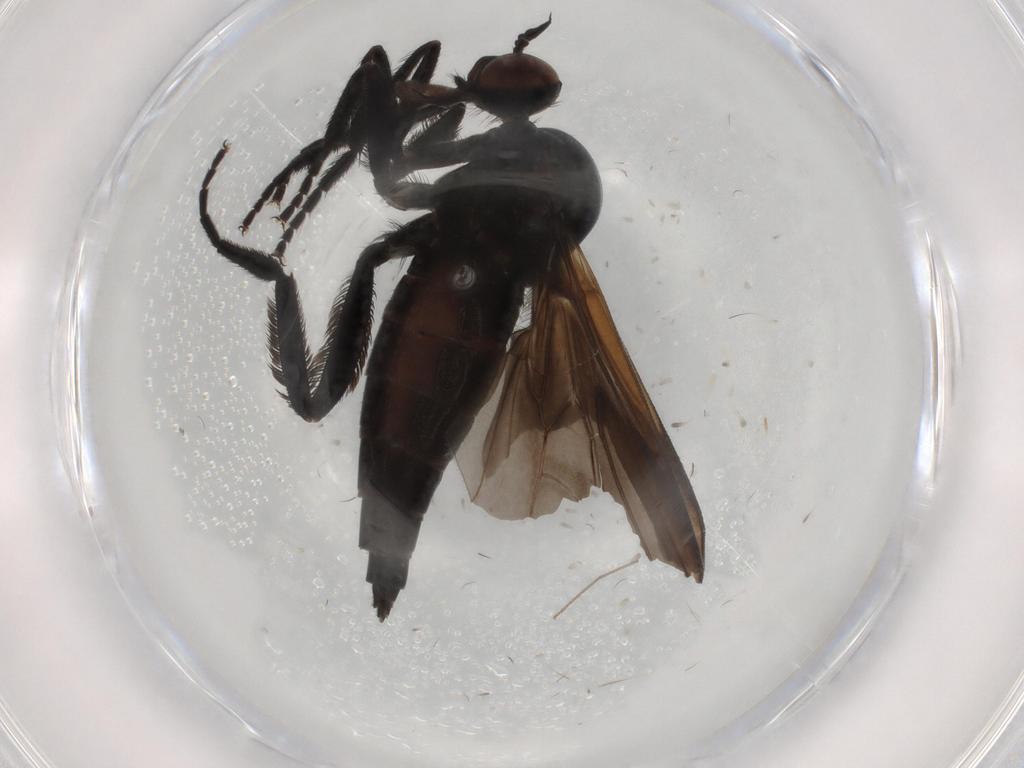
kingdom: Animalia
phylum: Arthropoda
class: Insecta
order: Diptera
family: Empididae
